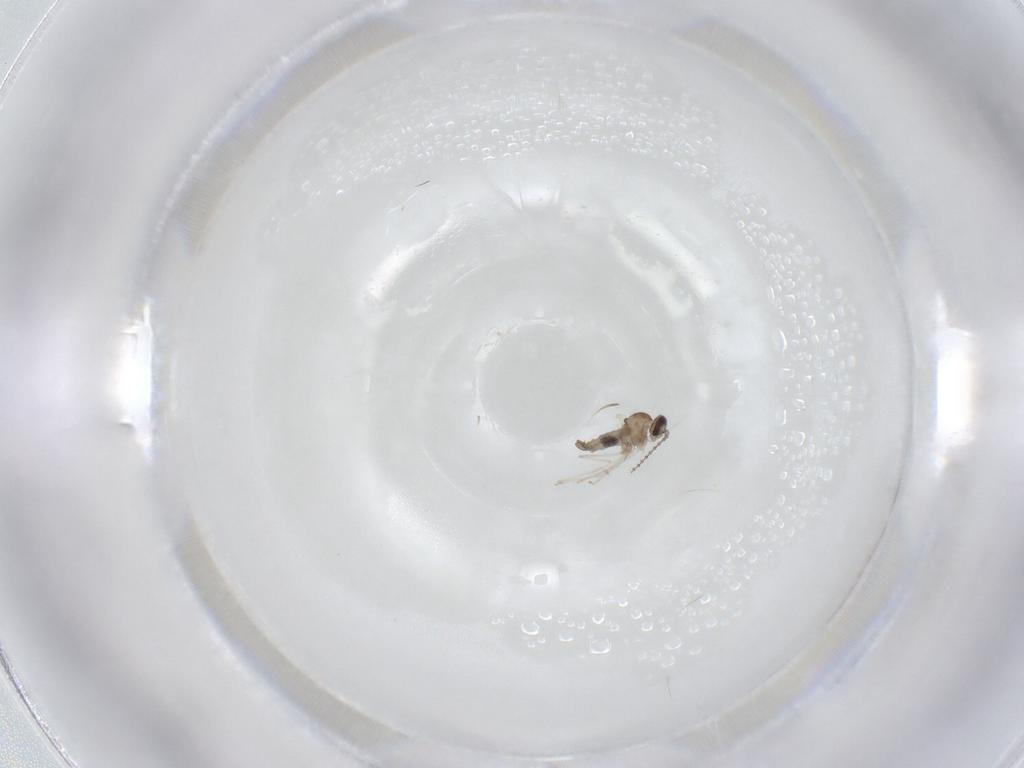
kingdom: Animalia
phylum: Arthropoda
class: Insecta
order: Diptera
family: Cecidomyiidae
